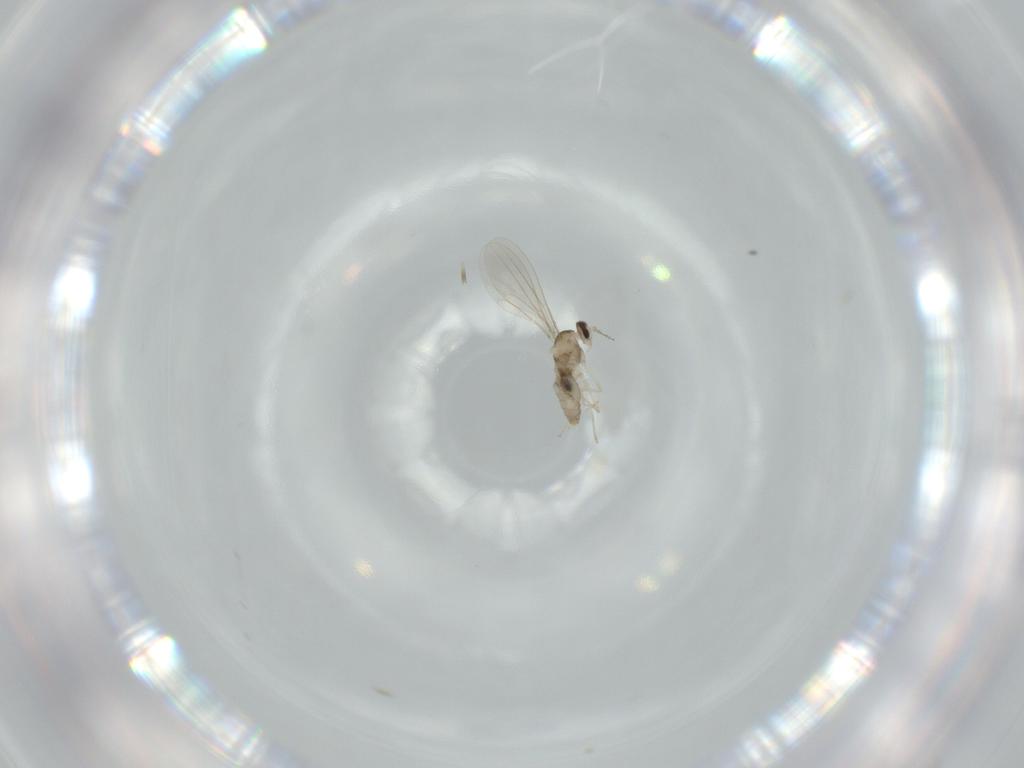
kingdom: Animalia
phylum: Arthropoda
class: Insecta
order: Diptera
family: Cecidomyiidae
